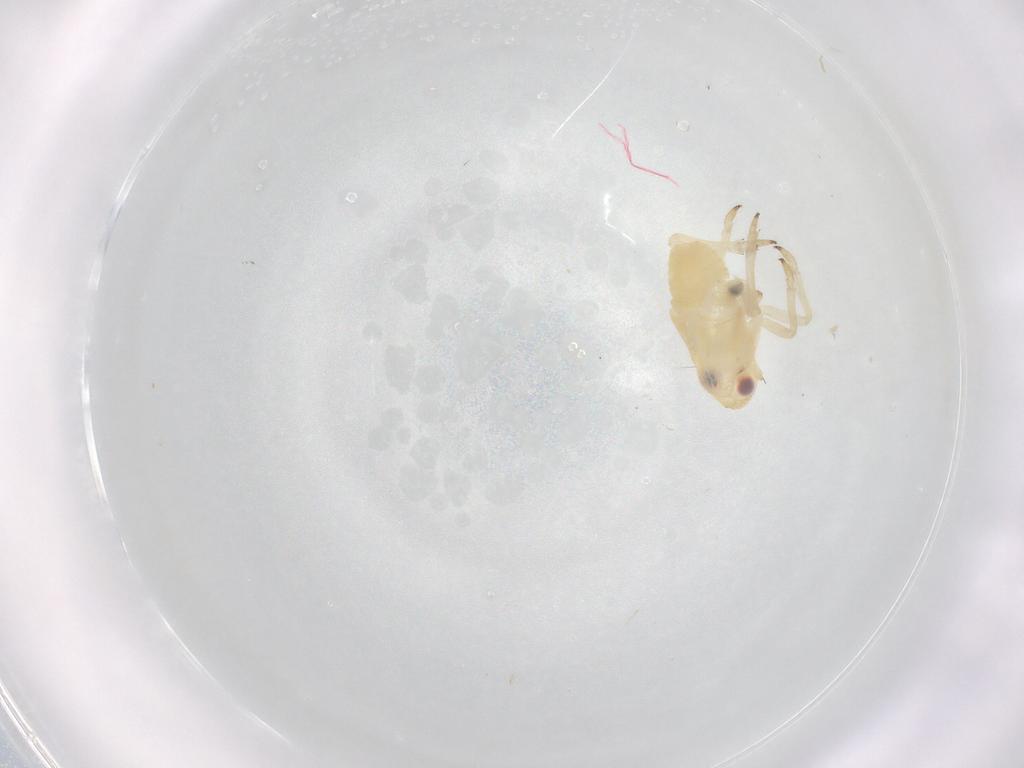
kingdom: Animalia
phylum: Arthropoda
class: Insecta
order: Hemiptera
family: Caliscelidae
